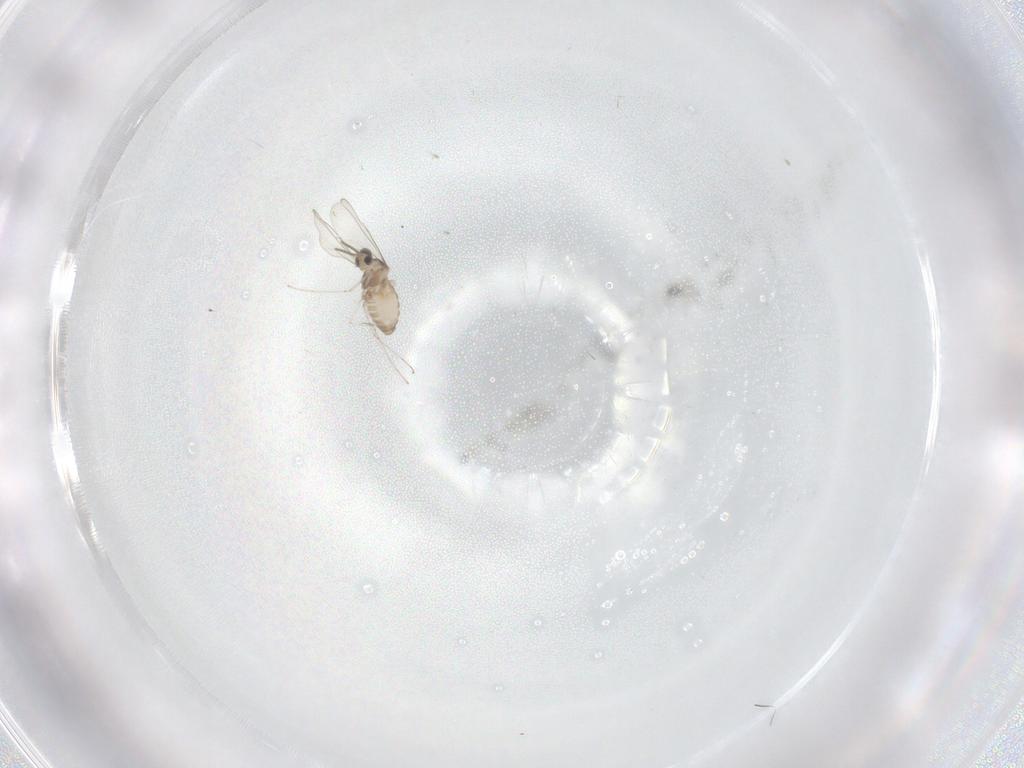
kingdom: Animalia
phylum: Arthropoda
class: Insecta
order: Diptera
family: Cecidomyiidae
